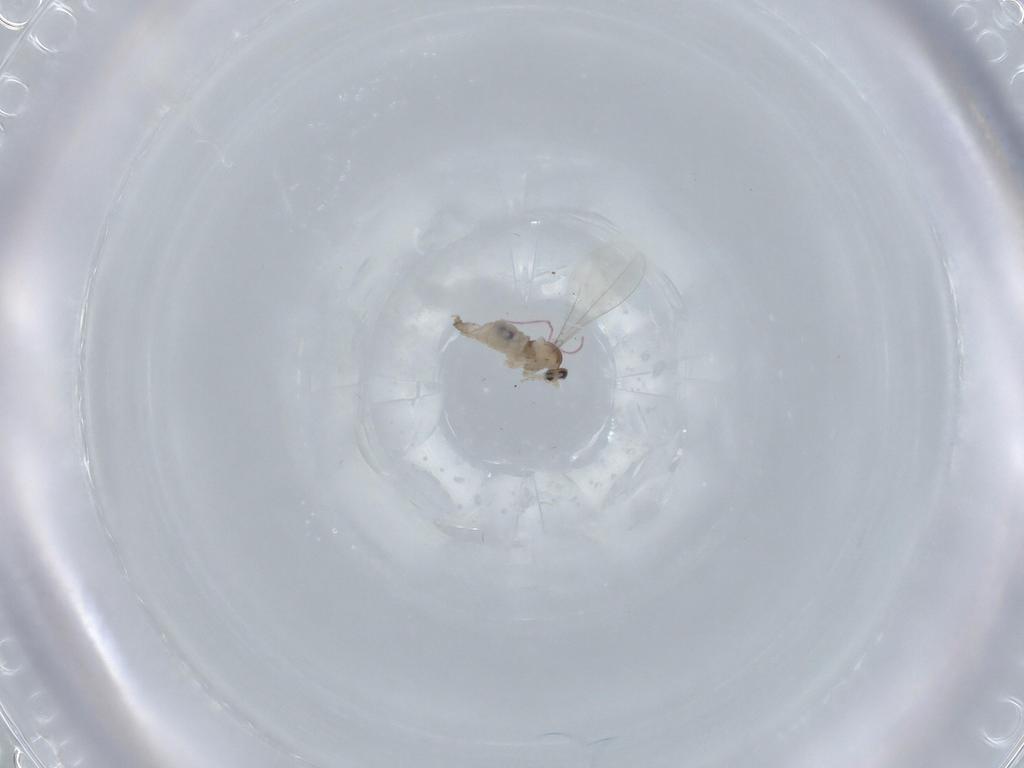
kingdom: Animalia
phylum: Arthropoda
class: Insecta
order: Diptera
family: Cecidomyiidae
